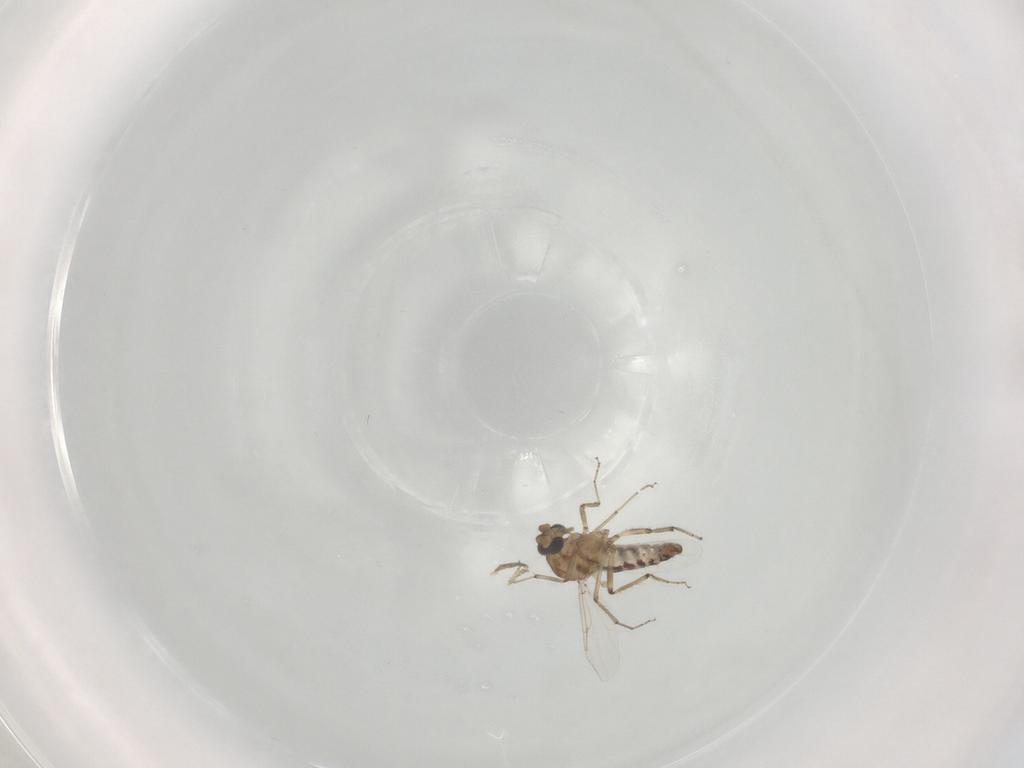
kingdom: Animalia
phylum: Arthropoda
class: Insecta
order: Diptera
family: Ceratopogonidae
